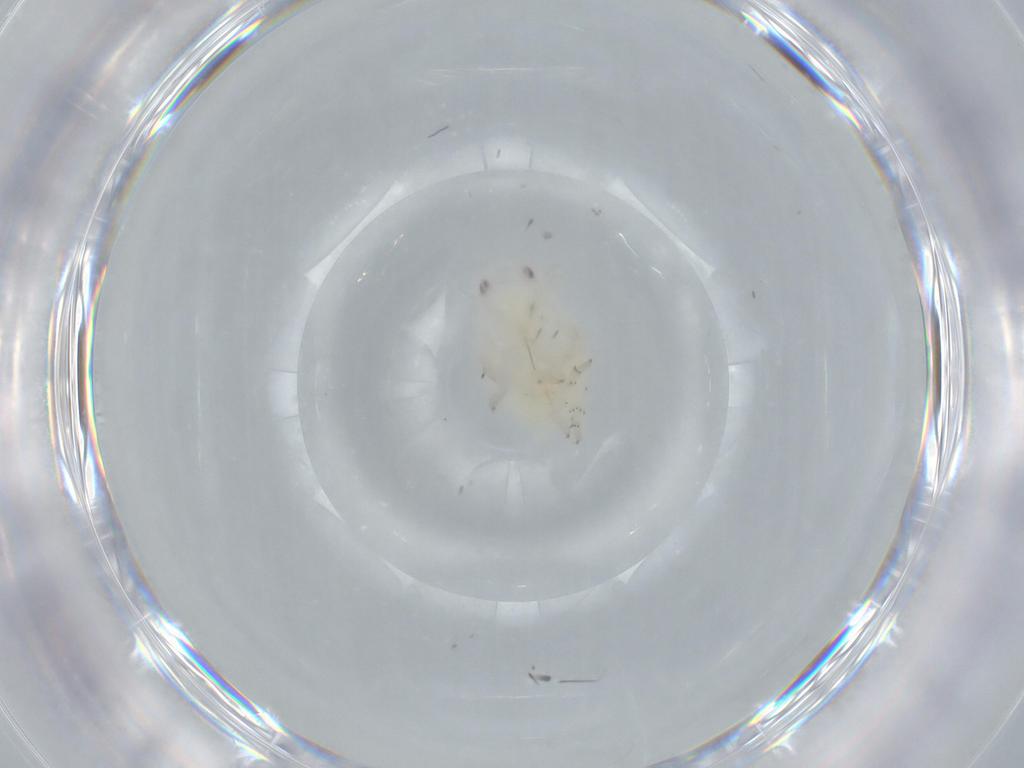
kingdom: Animalia
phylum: Arthropoda
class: Insecta
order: Hemiptera
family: Flatidae
